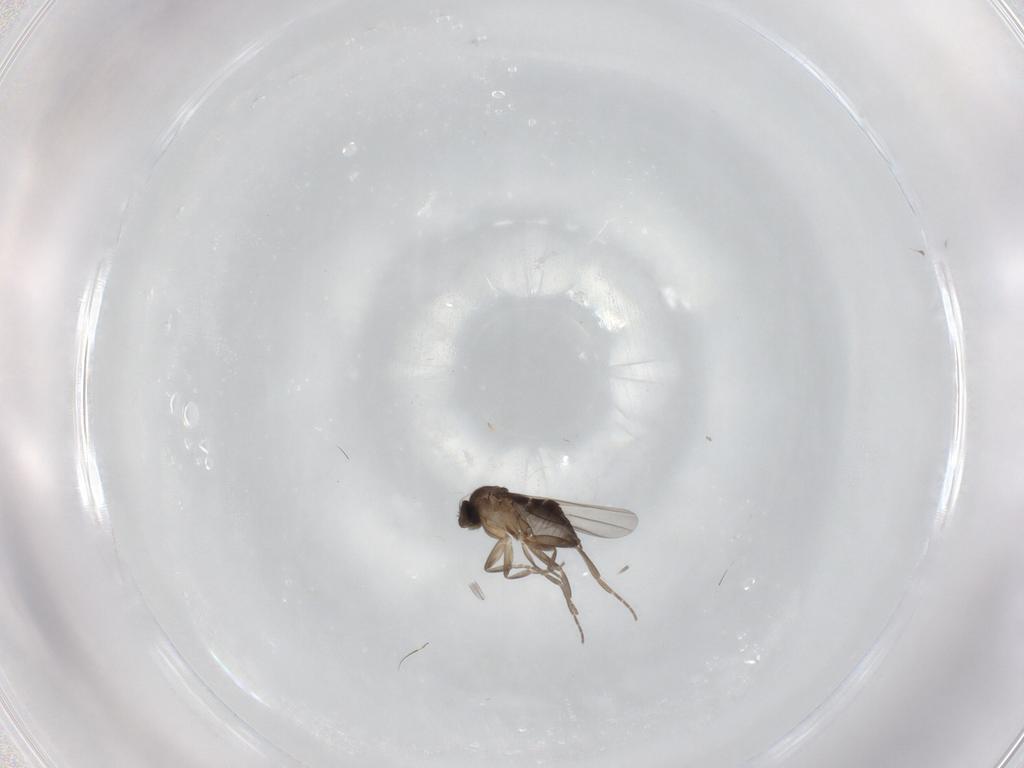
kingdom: Animalia
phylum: Arthropoda
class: Insecta
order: Diptera
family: Phoridae
